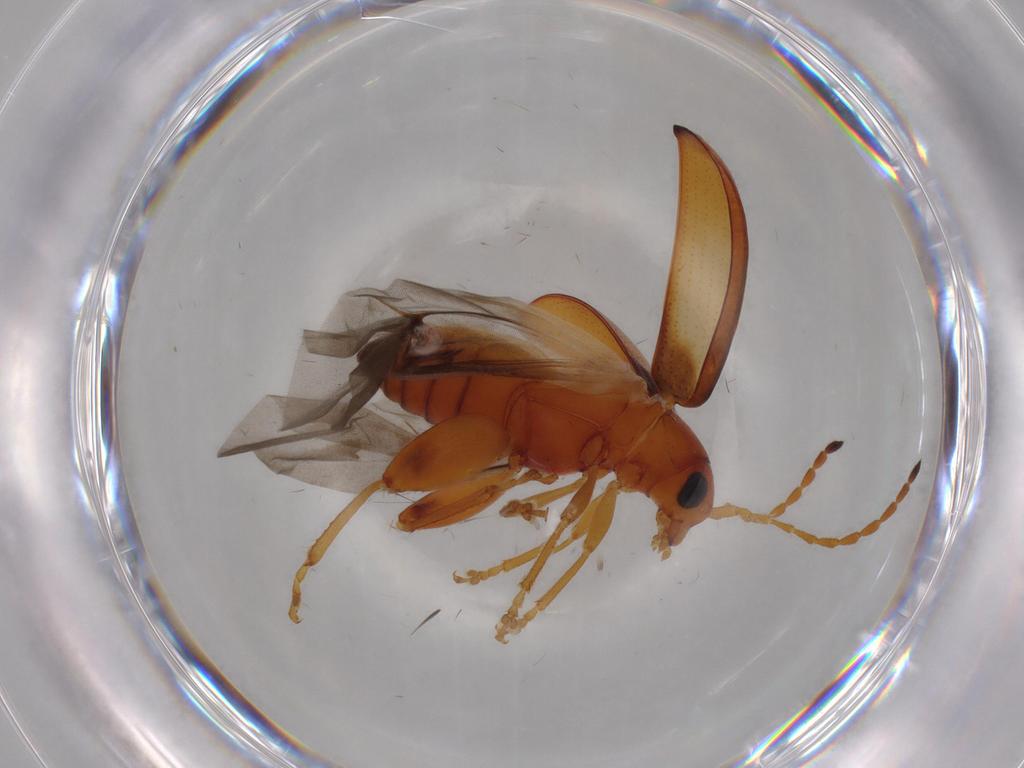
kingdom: Animalia
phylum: Arthropoda
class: Insecta
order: Coleoptera
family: Chrysomelidae
